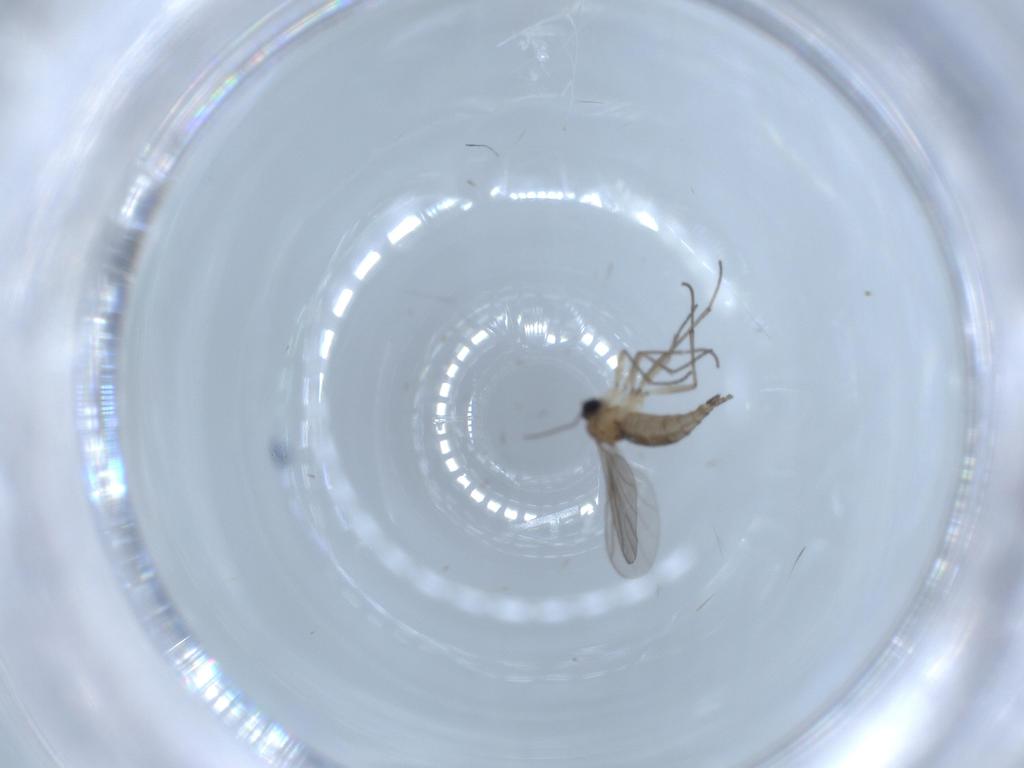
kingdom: Animalia
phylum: Arthropoda
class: Insecta
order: Diptera
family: Sciaridae
